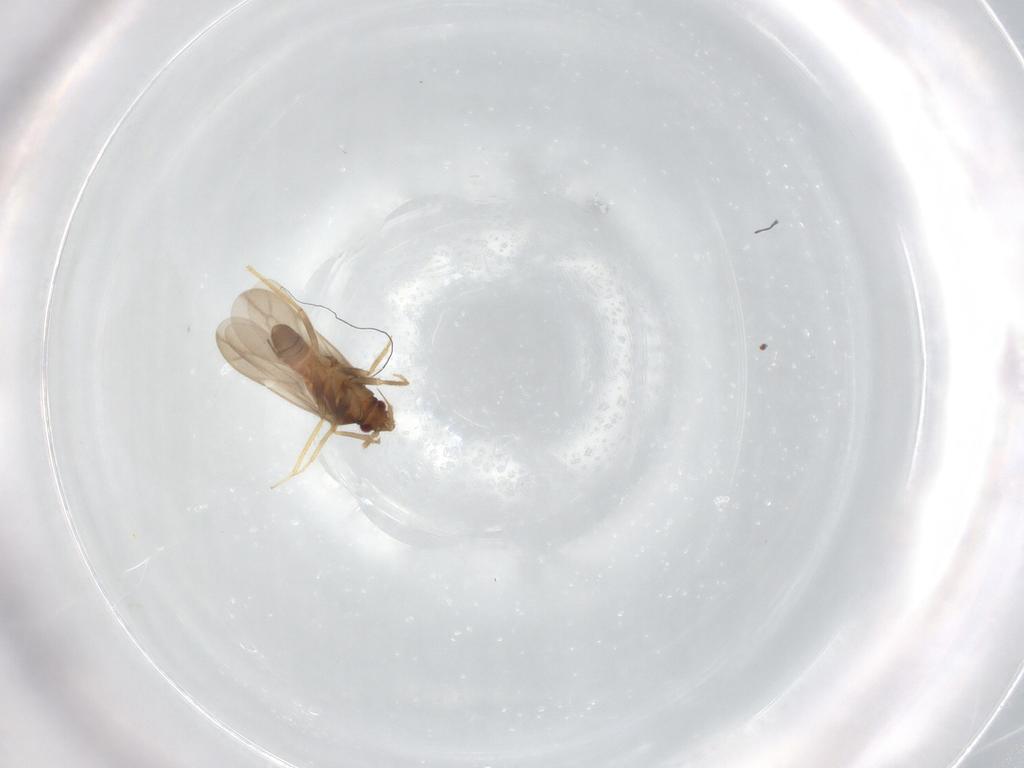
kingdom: Animalia
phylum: Arthropoda
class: Insecta
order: Hemiptera
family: Ceratocombidae
